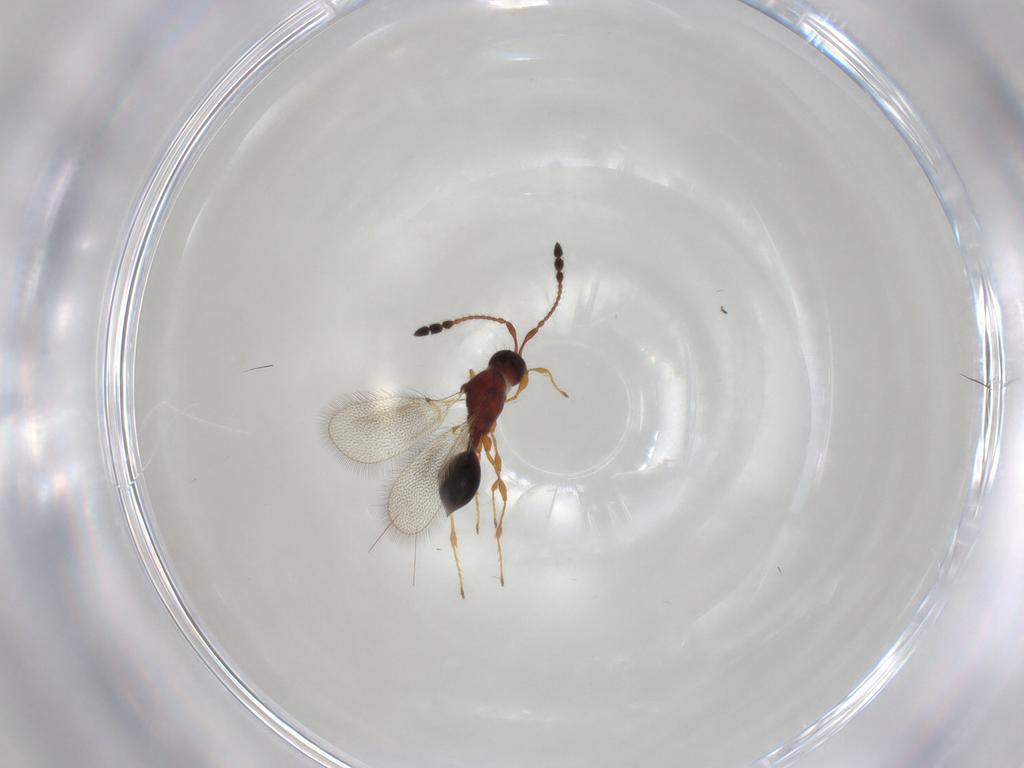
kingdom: Animalia
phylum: Arthropoda
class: Insecta
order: Hymenoptera
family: Diapriidae
